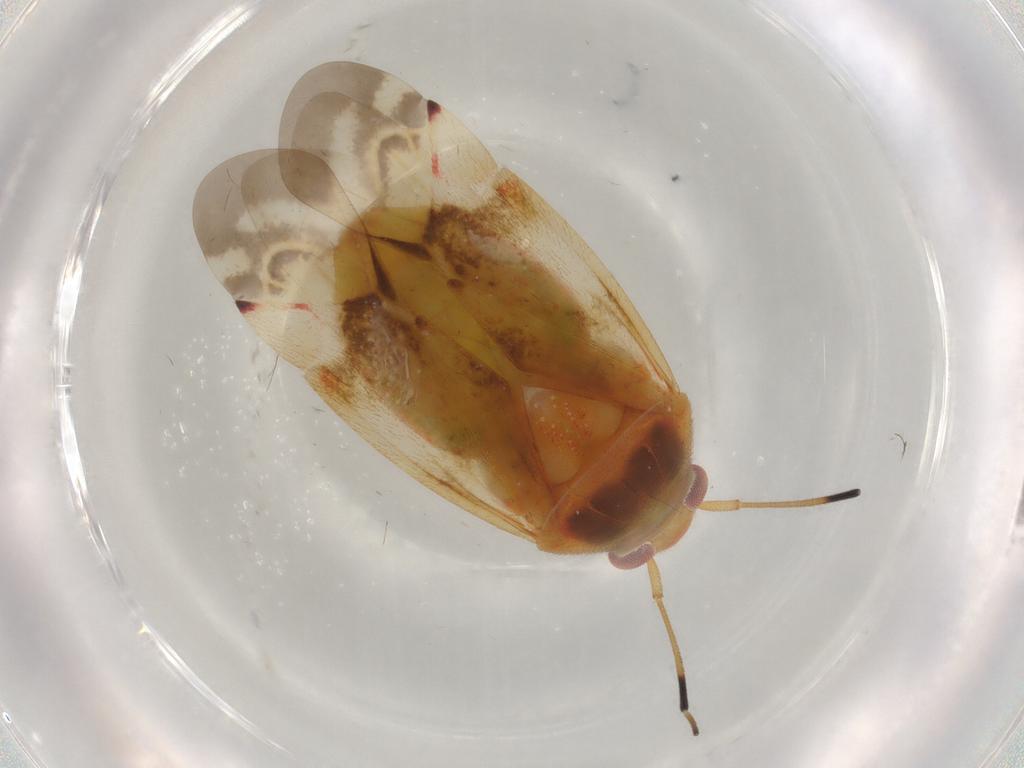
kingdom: Animalia
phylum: Arthropoda
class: Insecta
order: Hemiptera
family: Miridae
